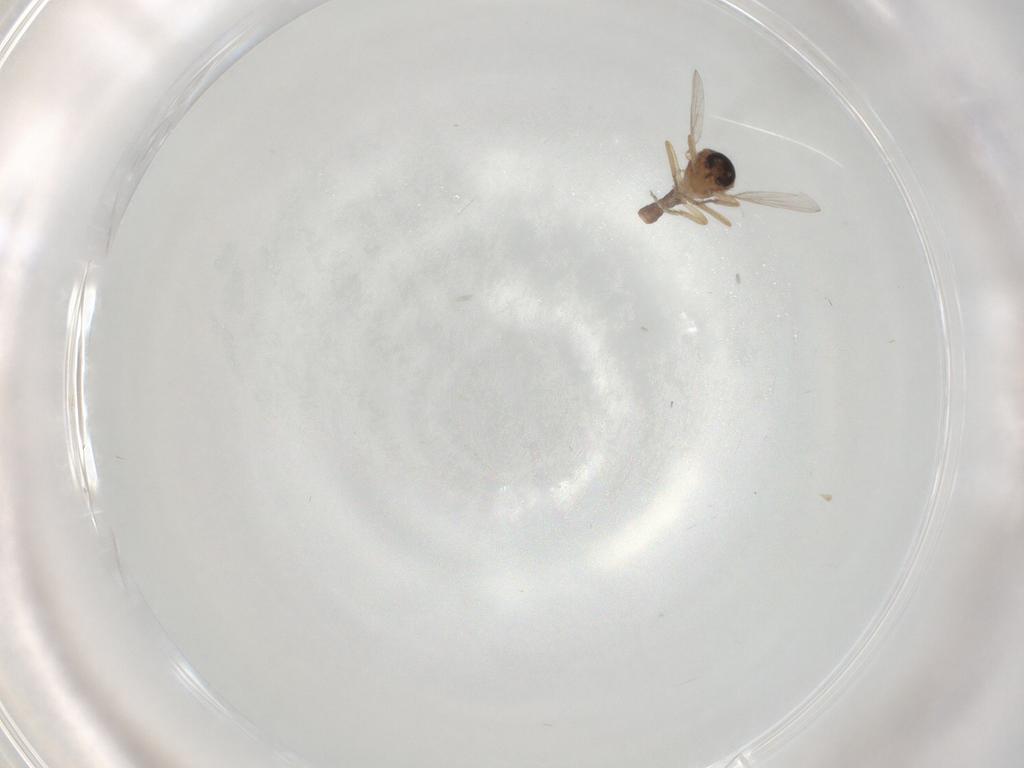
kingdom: Animalia
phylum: Arthropoda
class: Insecta
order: Diptera
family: Ceratopogonidae
